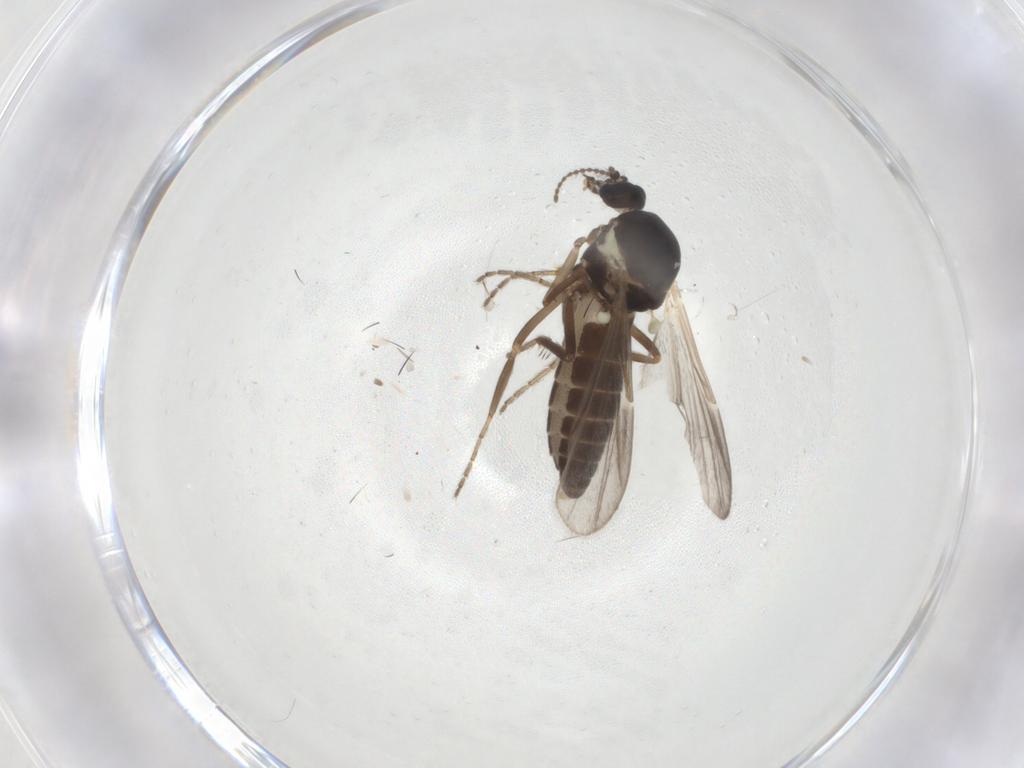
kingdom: Animalia
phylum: Arthropoda
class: Insecta
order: Diptera
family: Ceratopogonidae
